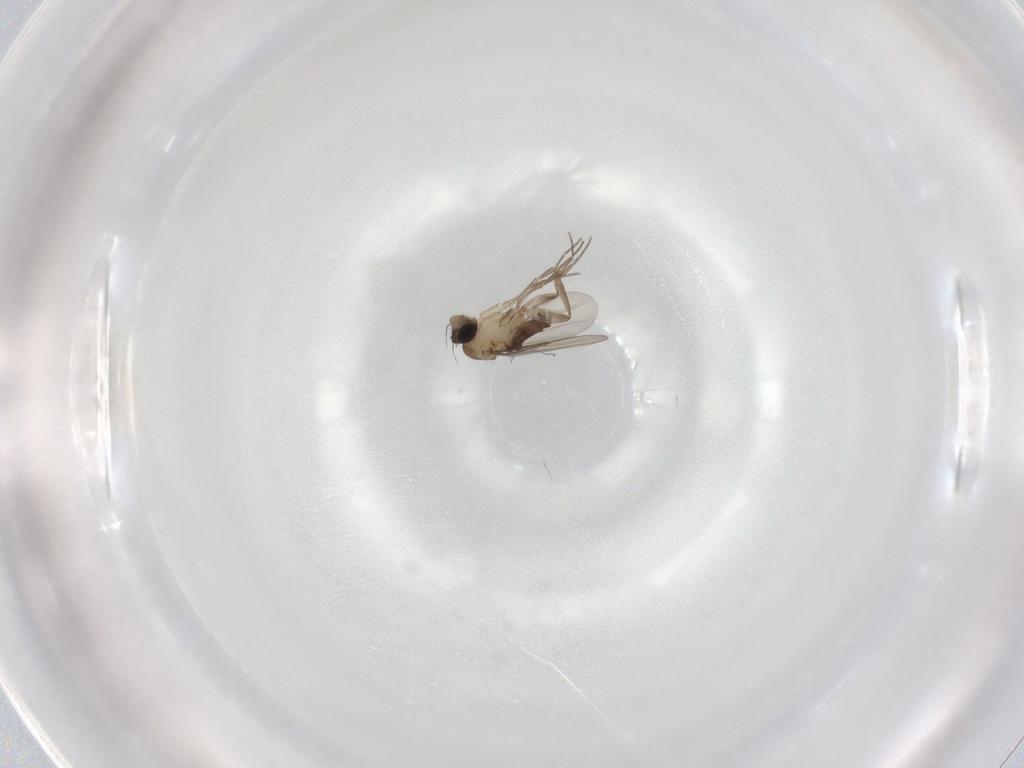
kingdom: Animalia
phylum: Arthropoda
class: Insecta
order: Diptera
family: Phoridae
